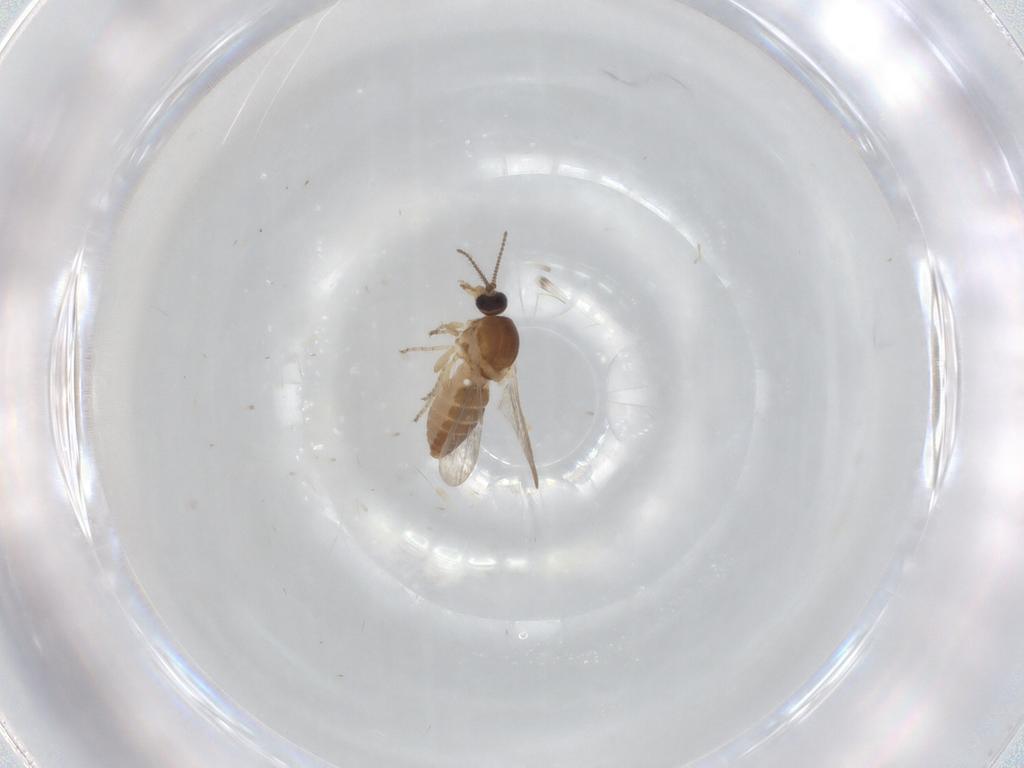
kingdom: Animalia
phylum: Arthropoda
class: Insecta
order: Diptera
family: Ceratopogonidae
